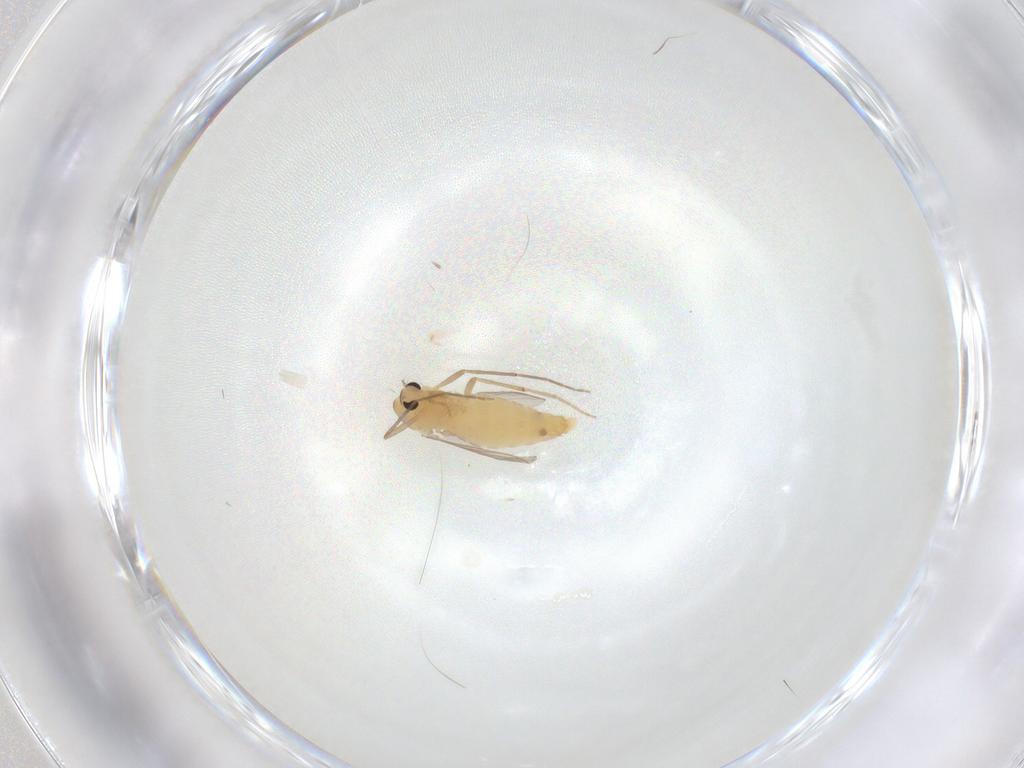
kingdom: Animalia
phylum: Arthropoda
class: Insecta
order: Diptera
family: Chironomidae
